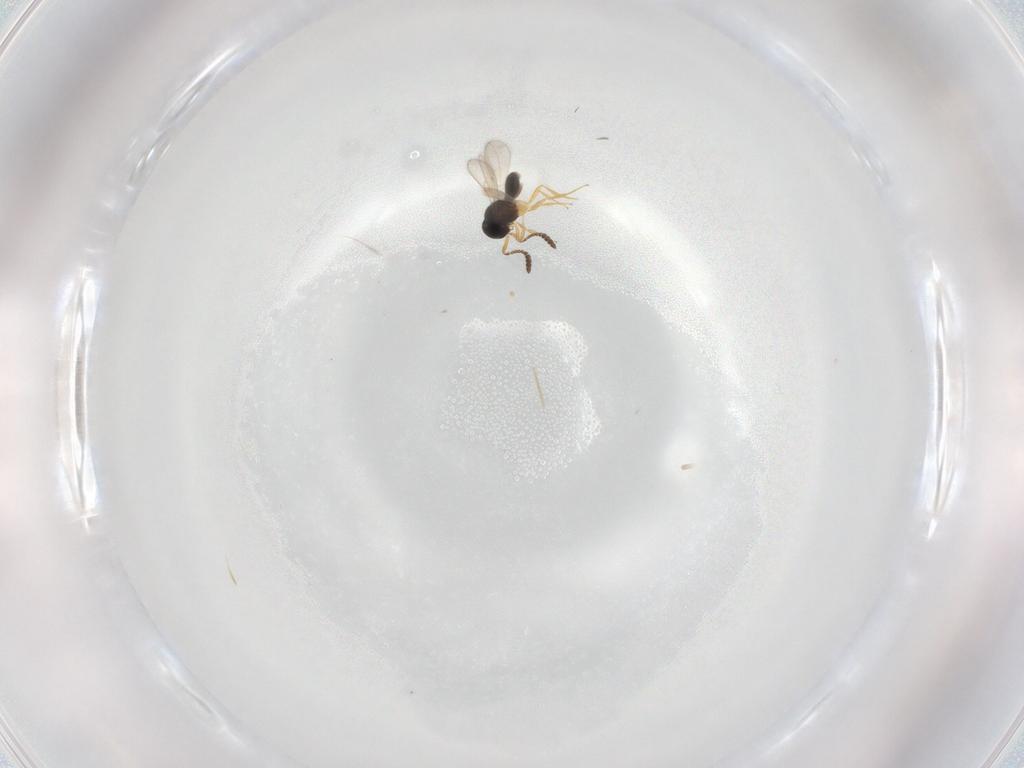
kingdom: Animalia
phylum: Arthropoda
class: Insecta
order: Hymenoptera
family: Scelionidae
